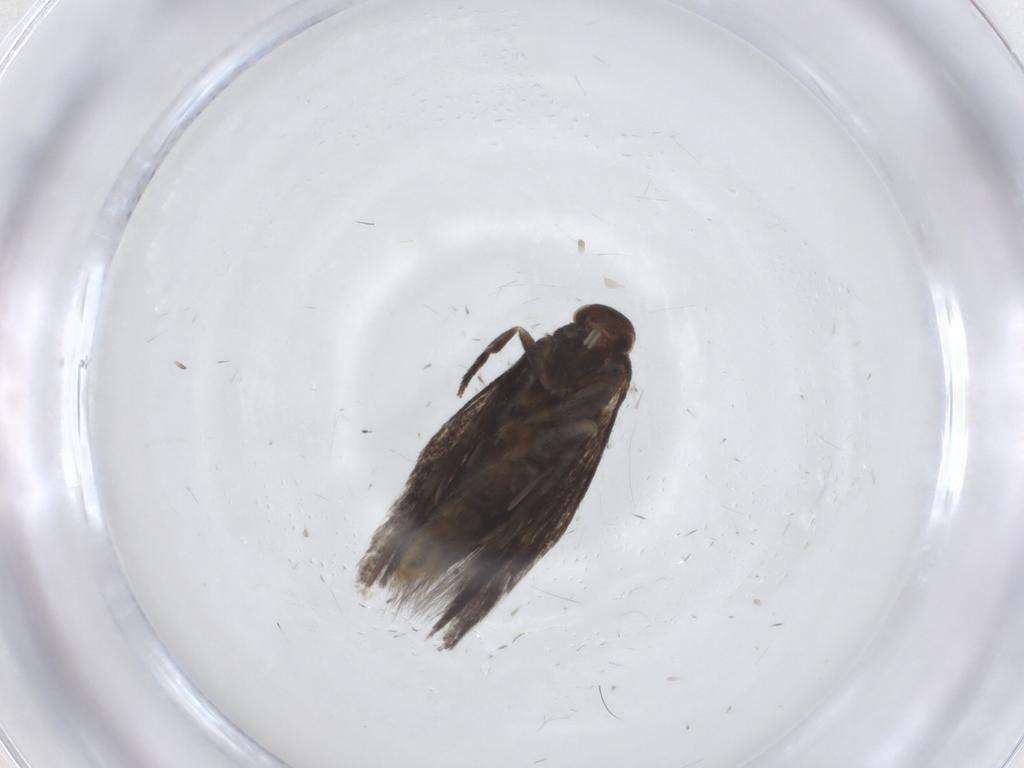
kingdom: Animalia
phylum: Arthropoda
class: Insecta
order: Lepidoptera
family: Elachistidae
